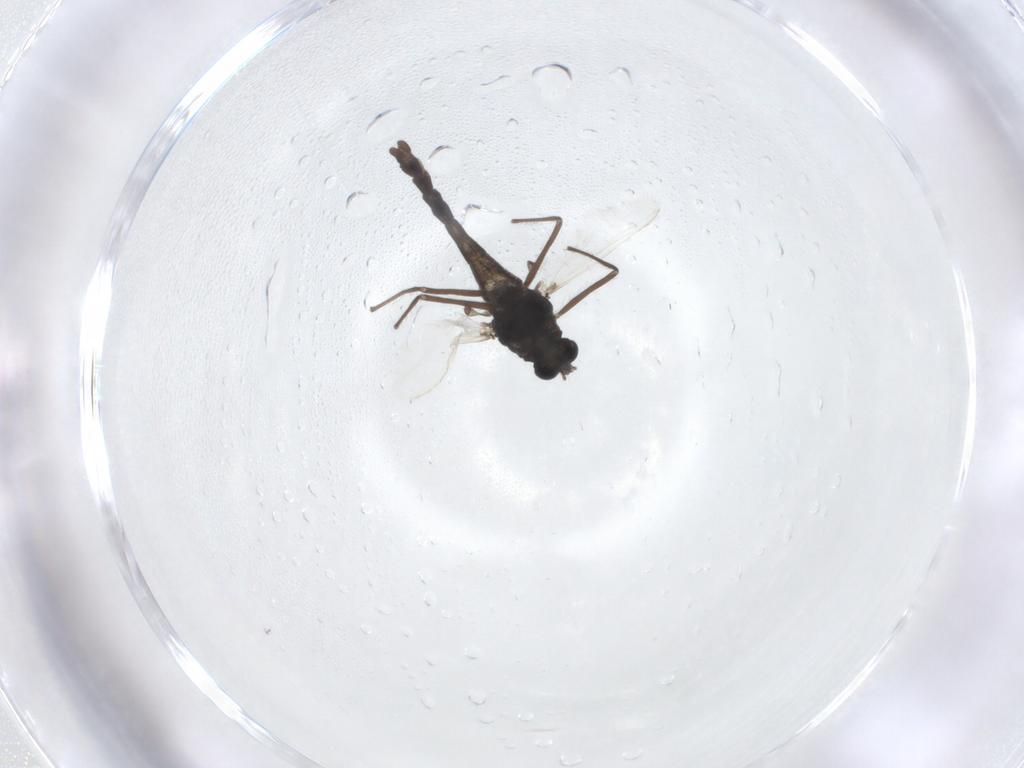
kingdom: Animalia
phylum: Arthropoda
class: Insecta
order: Diptera
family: Chironomidae
